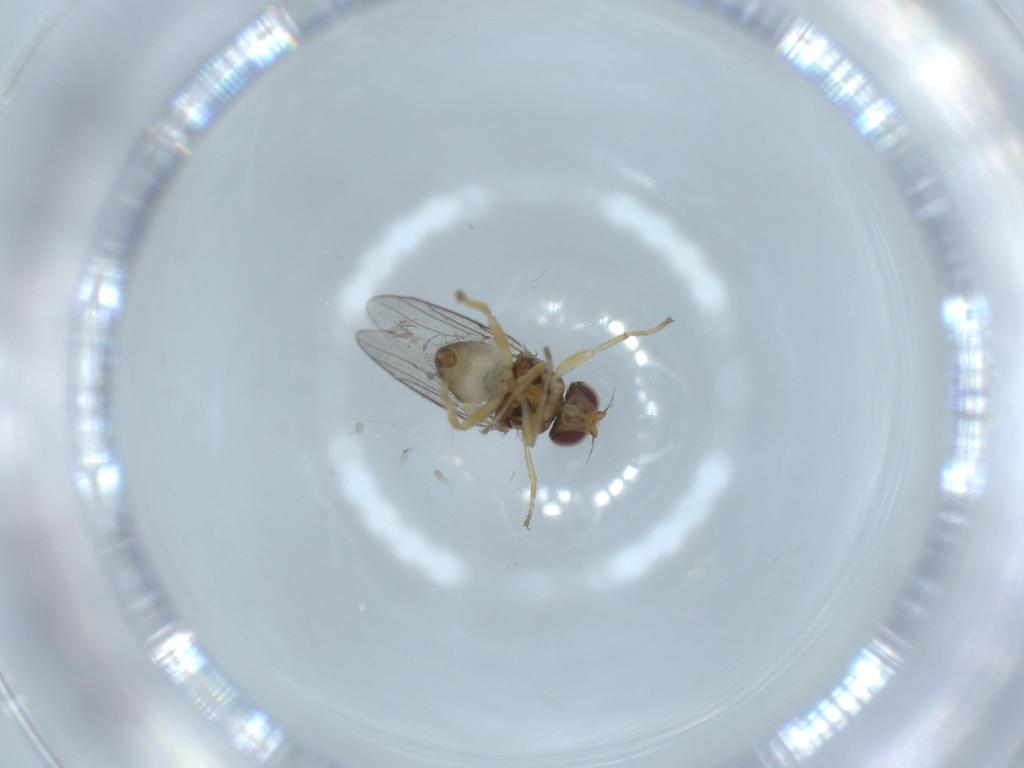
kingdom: Animalia
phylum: Arthropoda
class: Insecta
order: Diptera
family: Chloropidae
